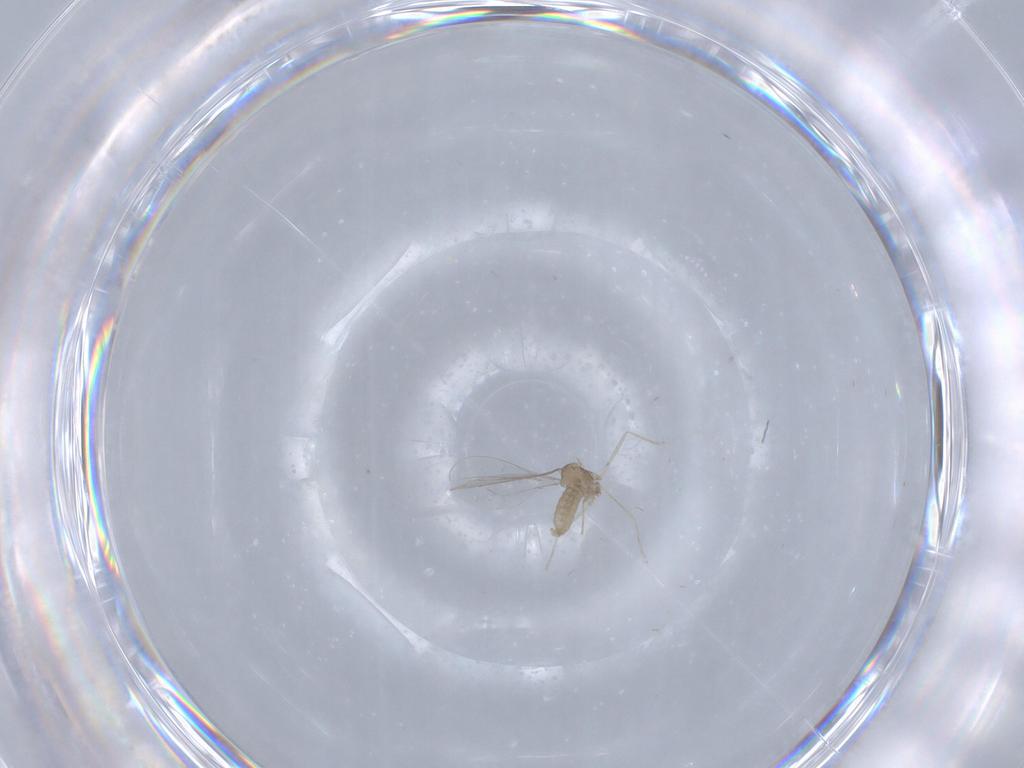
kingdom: Animalia
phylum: Arthropoda
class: Insecta
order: Diptera
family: Cecidomyiidae
